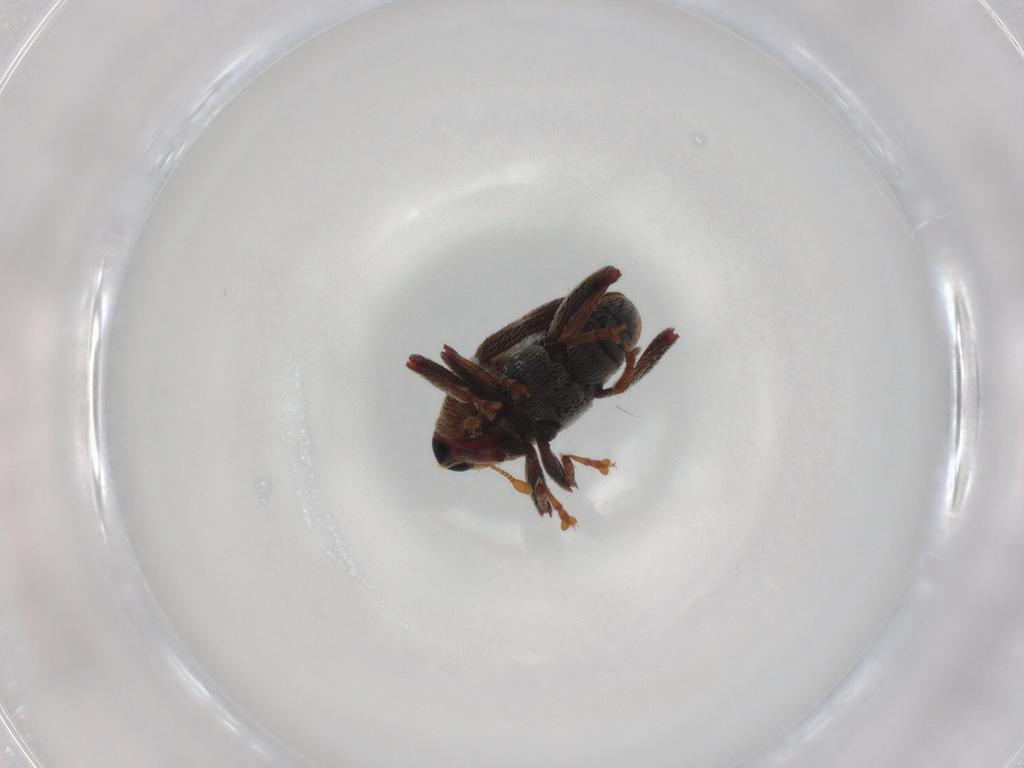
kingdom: Animalia
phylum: Arthropoda
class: Insecta
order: Coleoptera
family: Curculionidae
